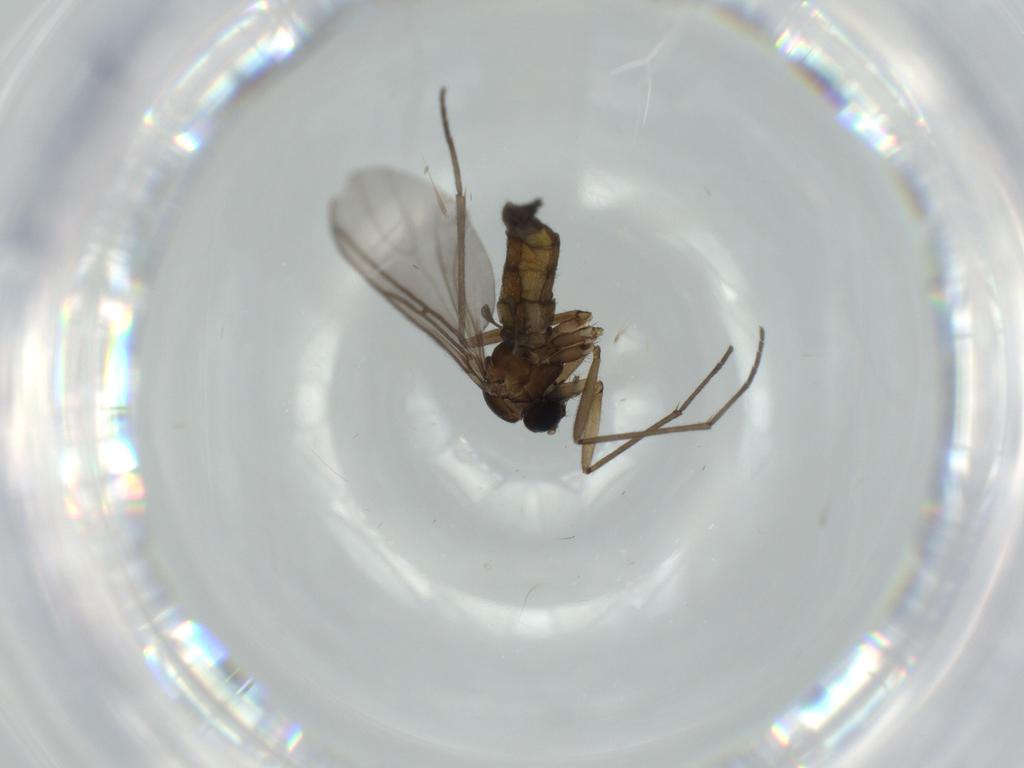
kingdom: Animalia
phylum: Arthropoda
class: Insecta
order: Diptera
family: Sciaridae
